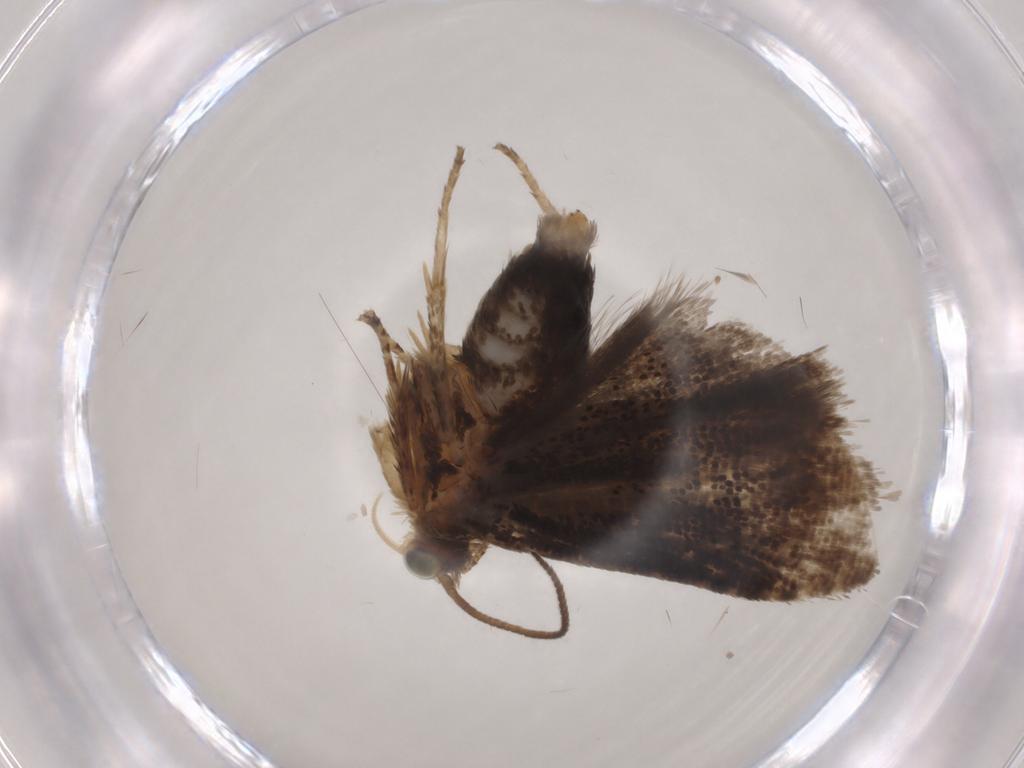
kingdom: Animalia
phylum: Arthropoda
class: Insecta
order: Lepidoptera
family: Tortricidae
